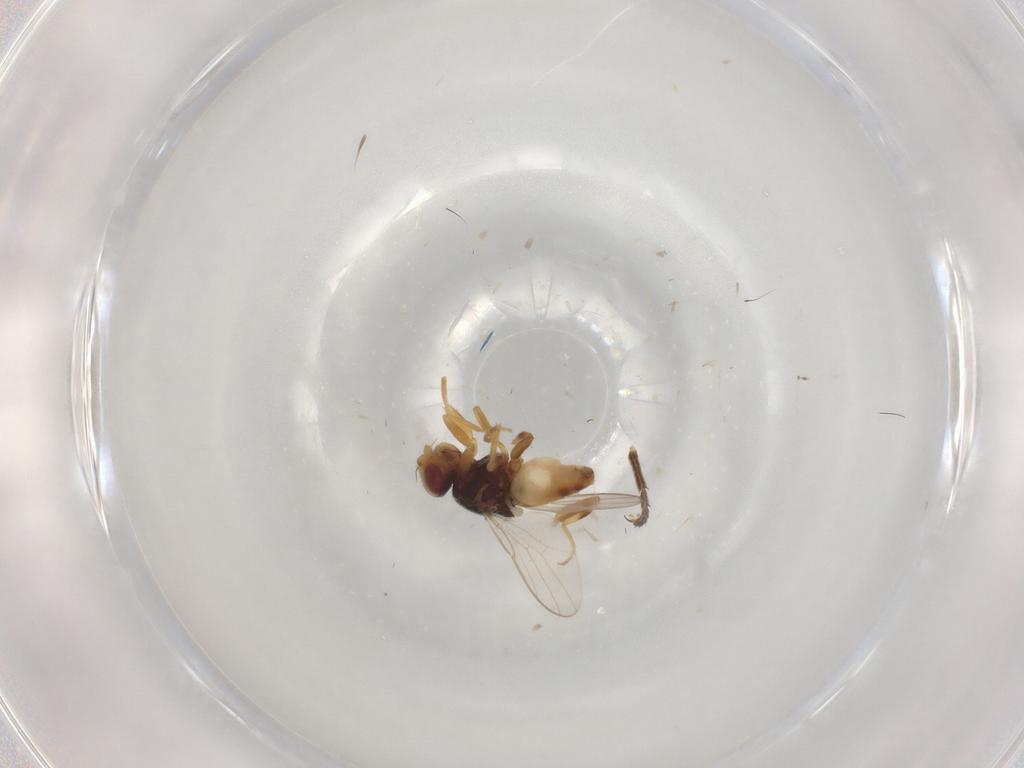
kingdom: Animalia
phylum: Arthropoda
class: Insecta
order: Diptera
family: Chloropidae
